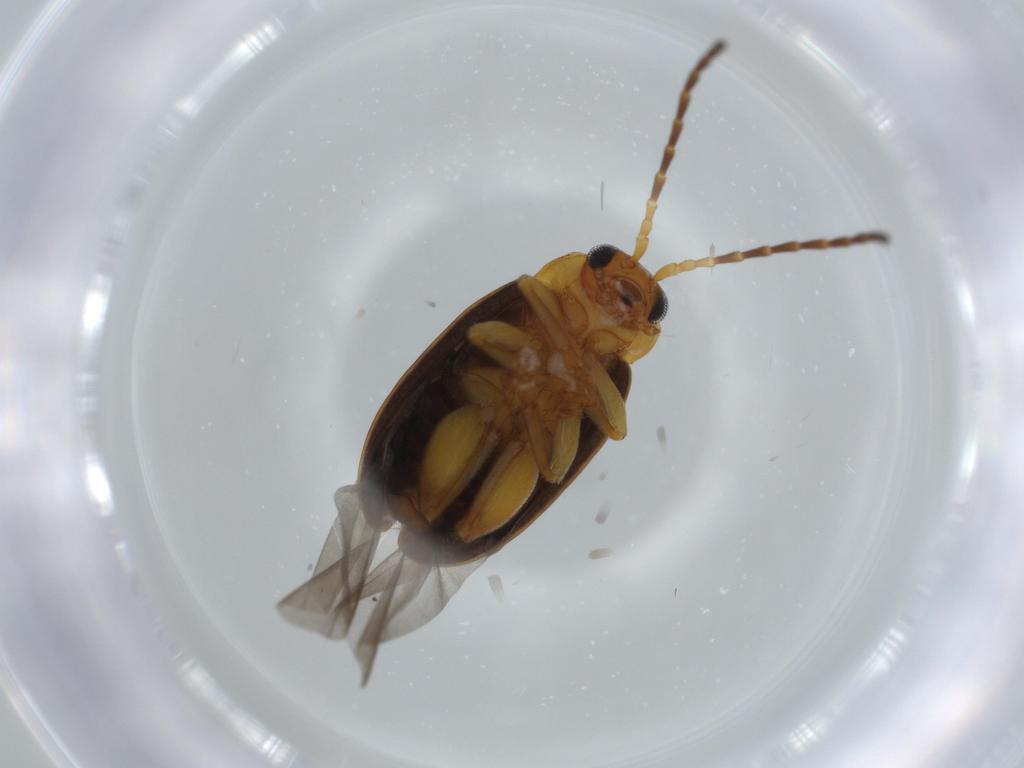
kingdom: Animalia
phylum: Arthropoda
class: Insecta
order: Coleoptera
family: Chrysomelidae
